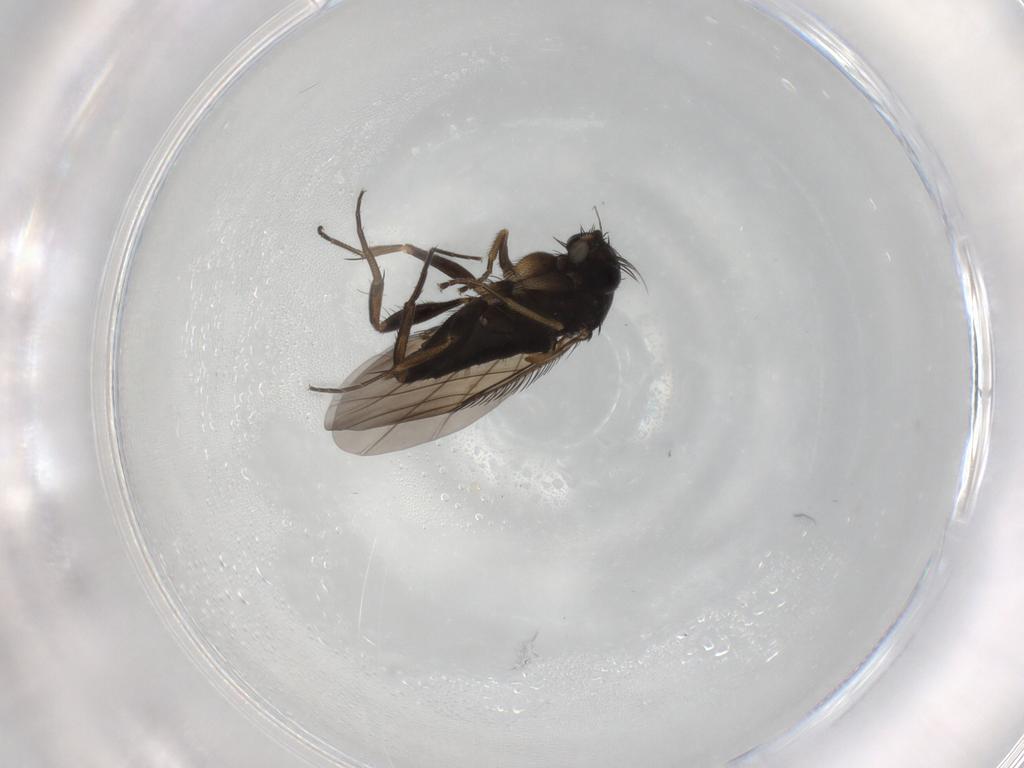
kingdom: Animalia
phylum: Arthropoda
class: Insecta
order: Diptera
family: Phoridae
